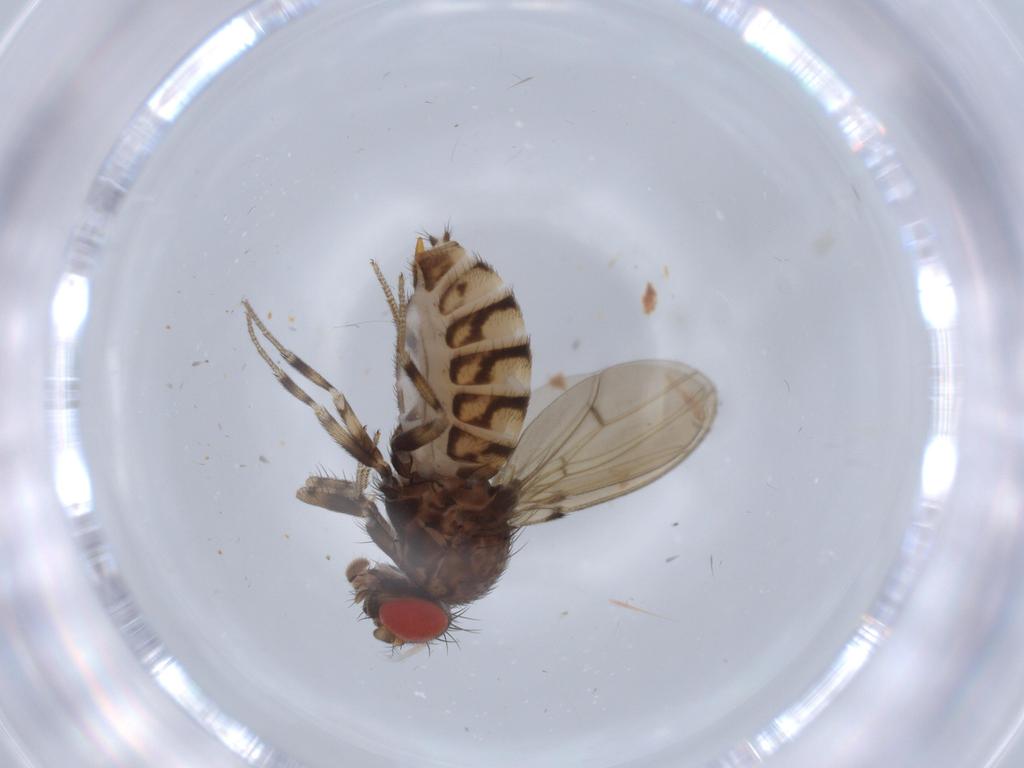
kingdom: Animalia
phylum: Arthropoda
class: Insecta
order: Diptera
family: Drosophilidae
